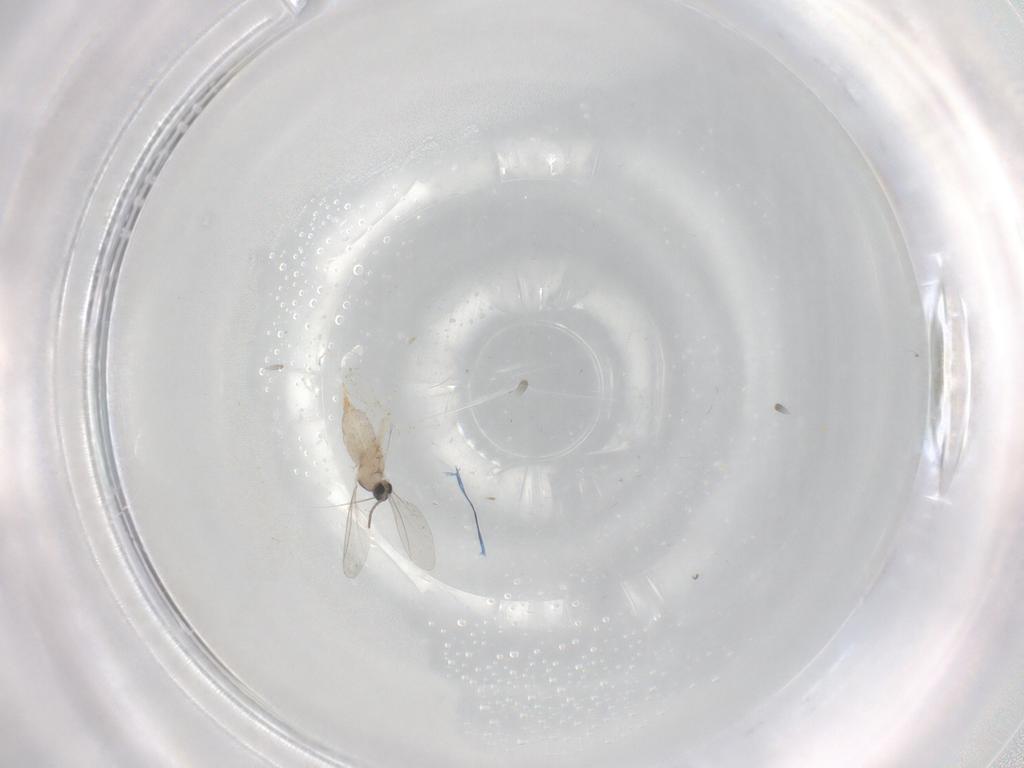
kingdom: Animalia
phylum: Arthropoda
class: Insecta
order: Diptera
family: Cecidomyiidae
